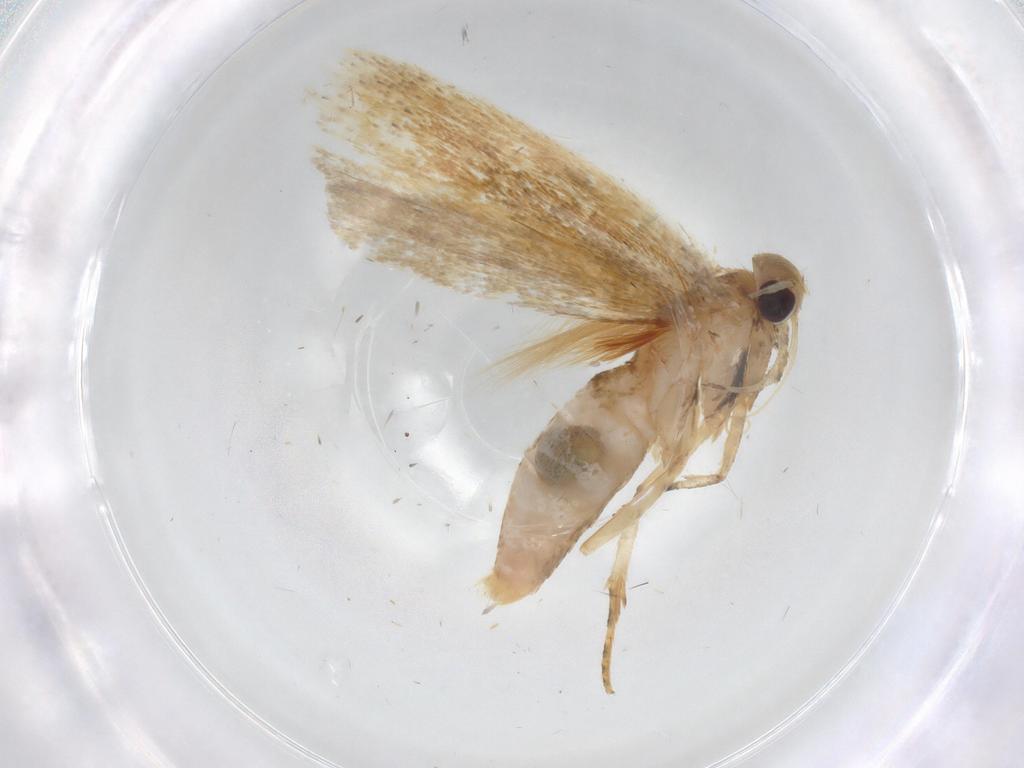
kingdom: Animalia
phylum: Arthropoda
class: Insecta
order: Lepidoptera
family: Gelechiidae
